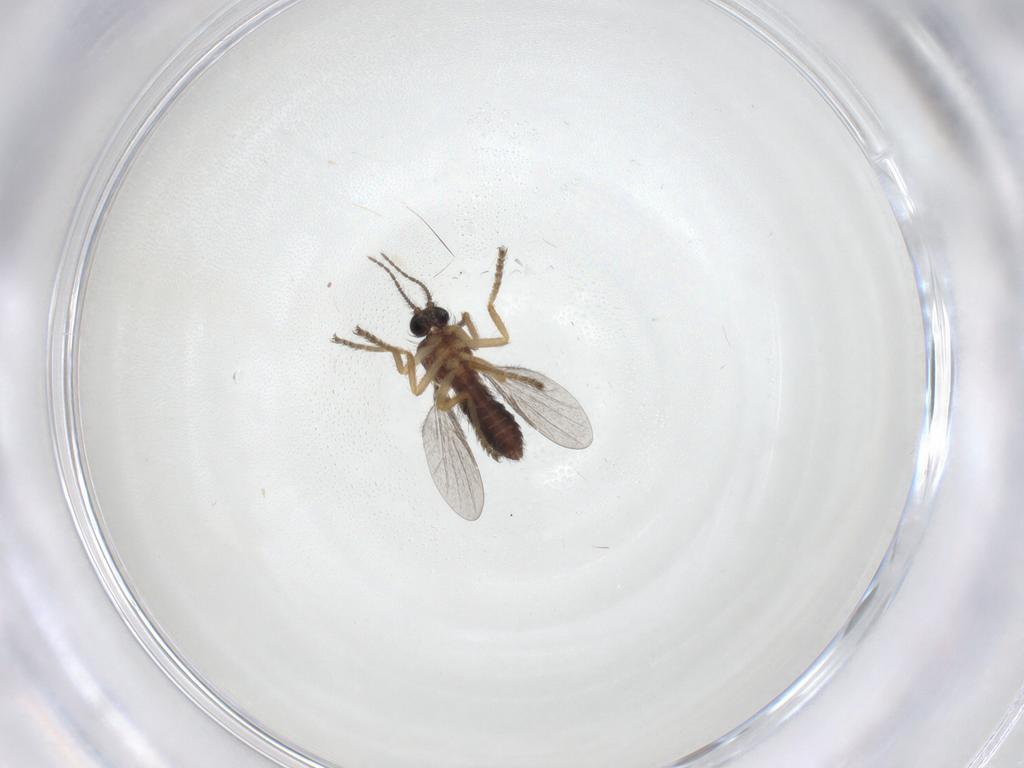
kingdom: Animalia
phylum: Arthropoda
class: Insecta
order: Diptera
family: Ceratopogonidae
